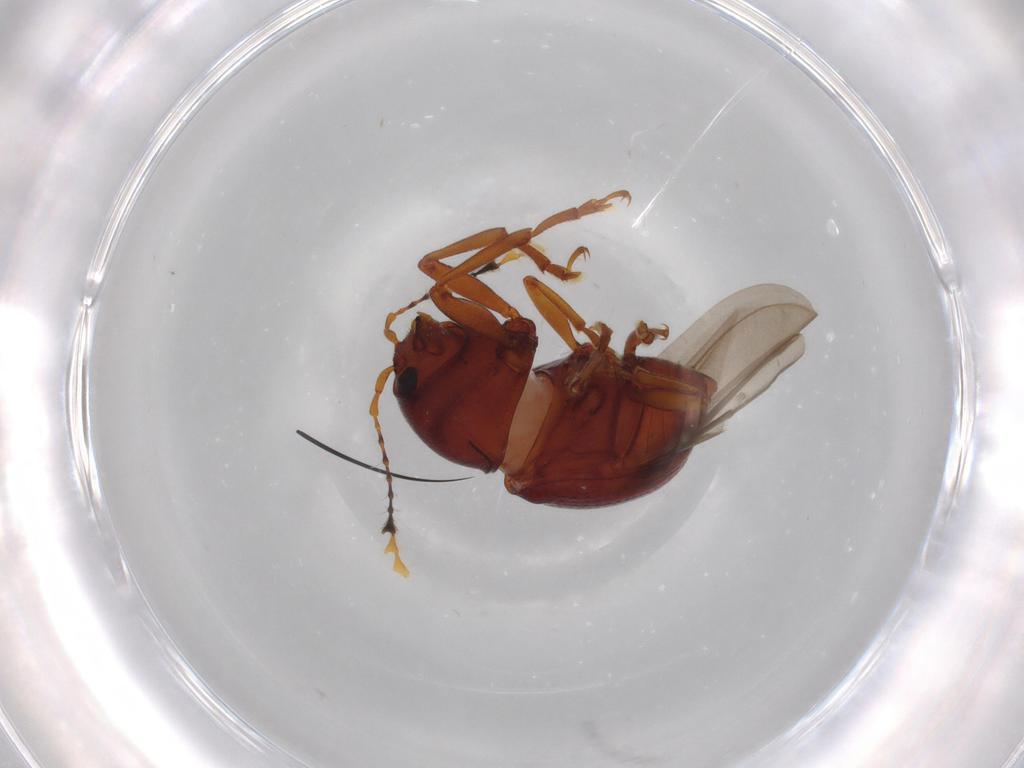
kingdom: Animalia
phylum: Arthropoda
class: Insecta
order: Coleoptera
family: Anthribidae
